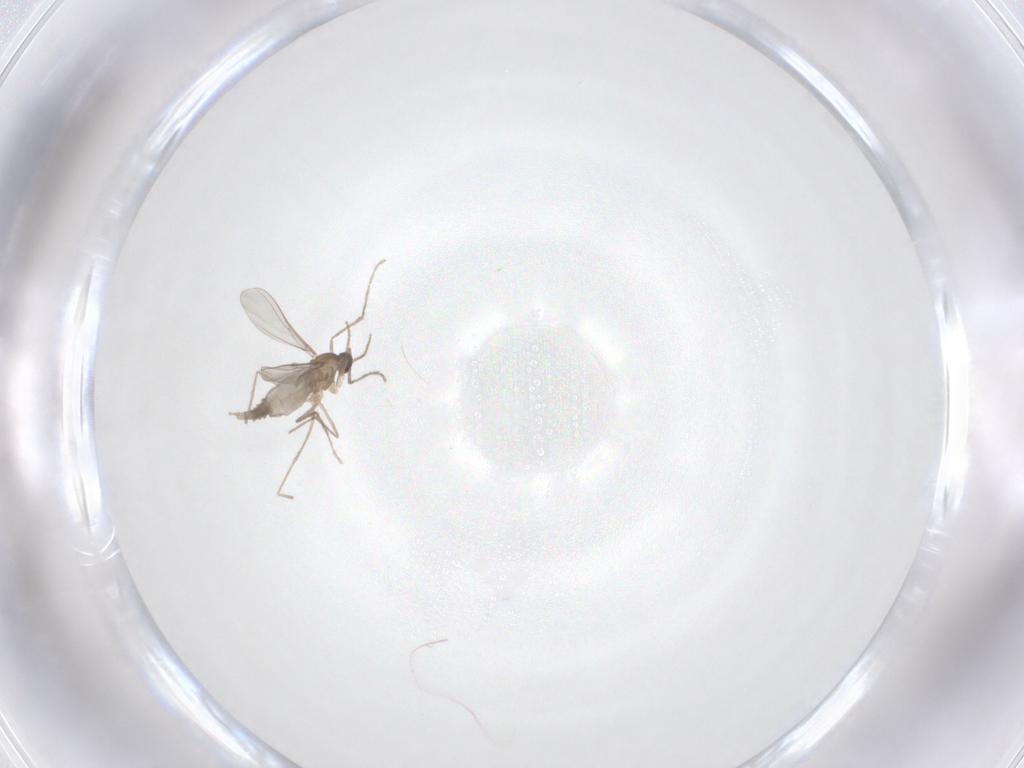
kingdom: Animalia
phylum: Arthropoda
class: Insecta
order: Diptera
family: Cecidomyiidae
